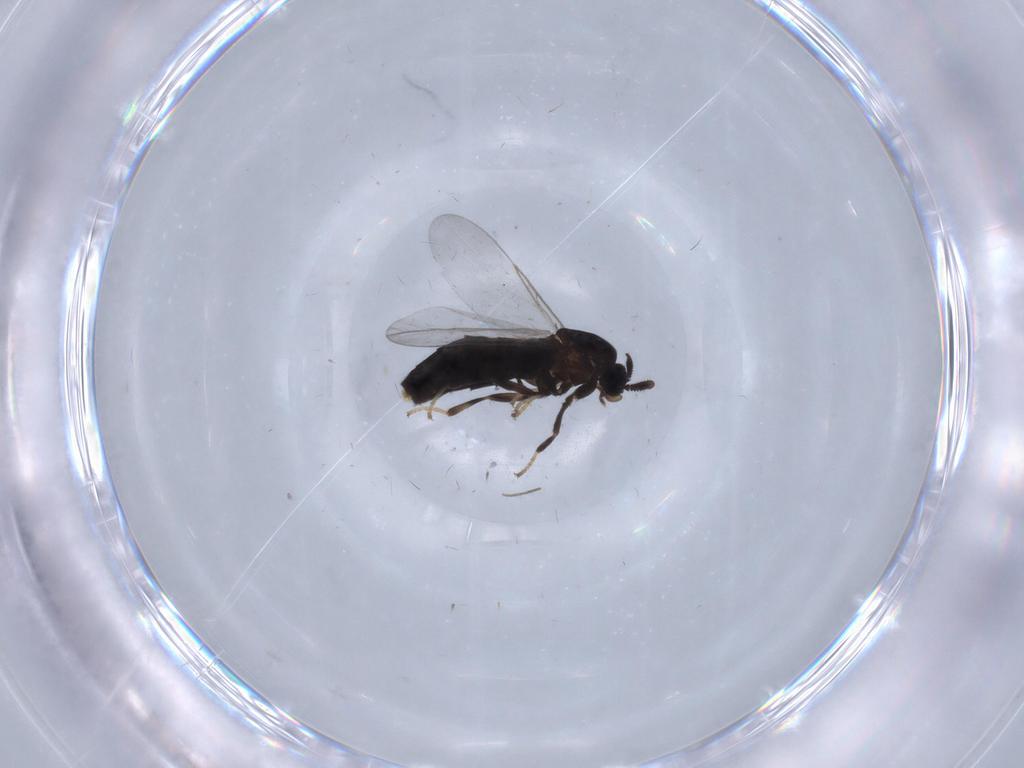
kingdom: Animalia
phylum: Arthropoda
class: Insecta
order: Diptera
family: Scatopsidae
